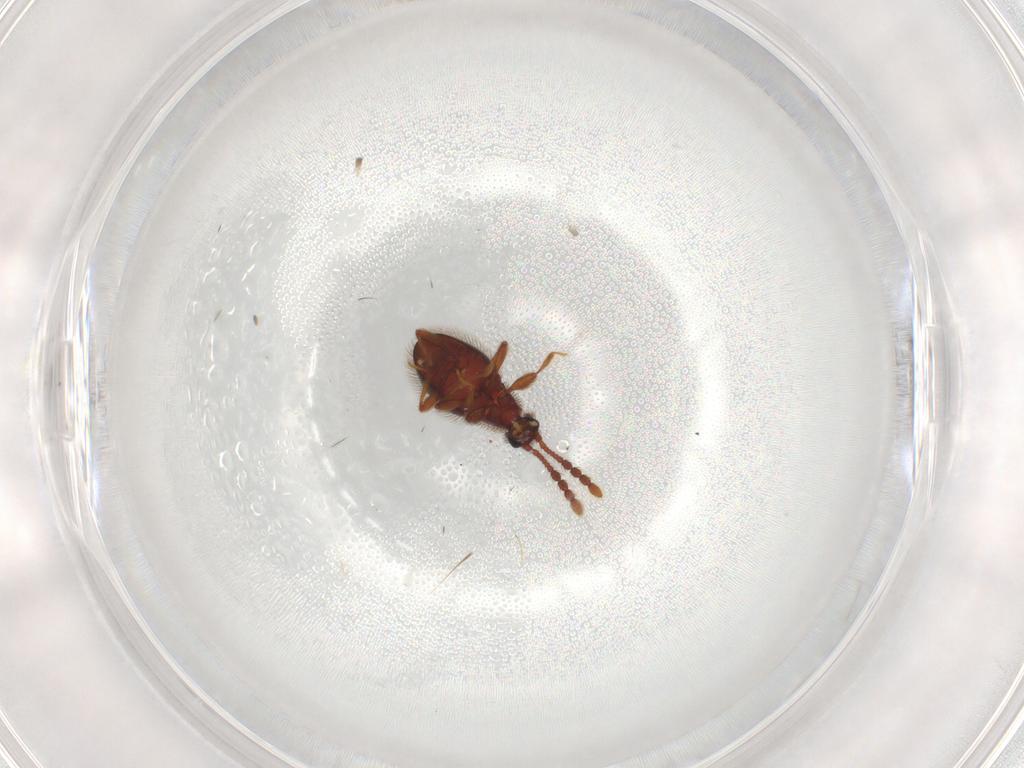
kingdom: Animalia
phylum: Arthropoda
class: Insecta
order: Coleoptera
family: Staphylinidae
